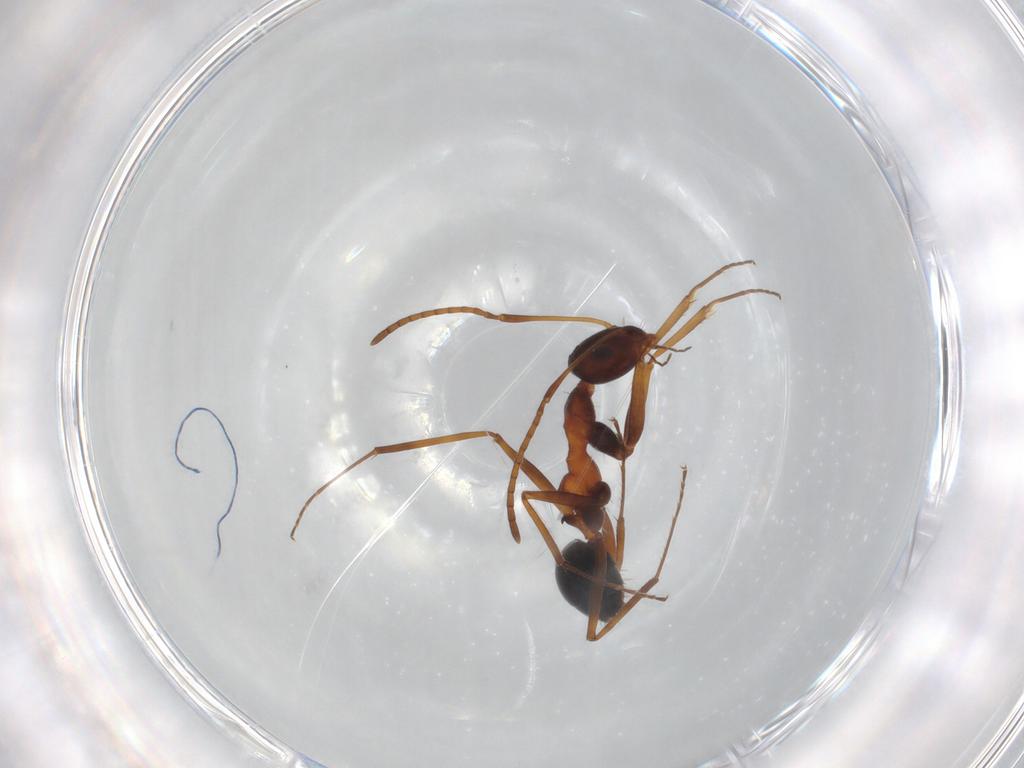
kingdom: Animalia
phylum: Arthropoda
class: Insecta
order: Hymenoptera
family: Formicidae
